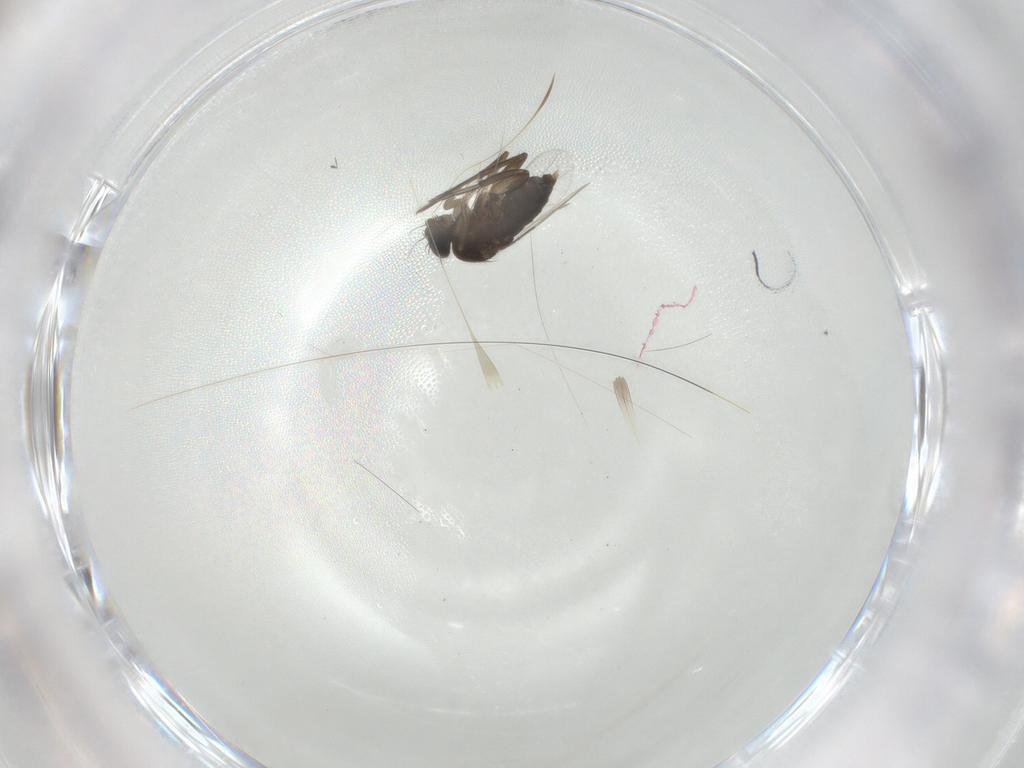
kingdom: Animalia
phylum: Arthropoda
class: Insecta
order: Diptera
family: Phoridae
